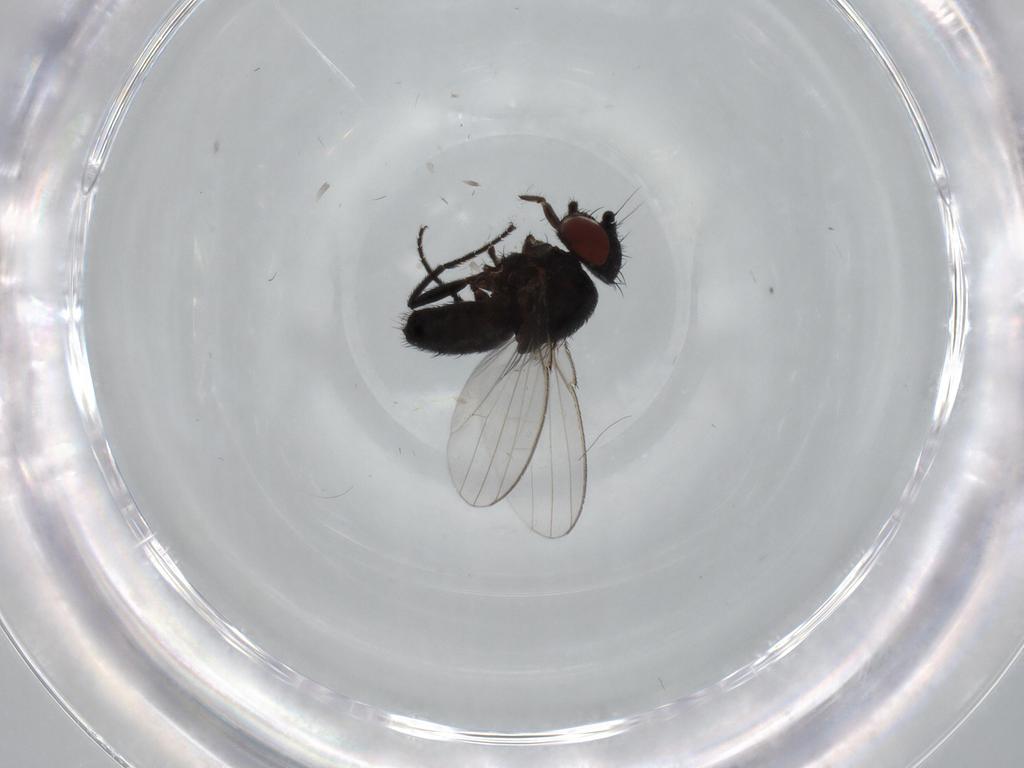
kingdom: Animalia
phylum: Arthropoda
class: Insecta
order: Diptera
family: Milichiidae
